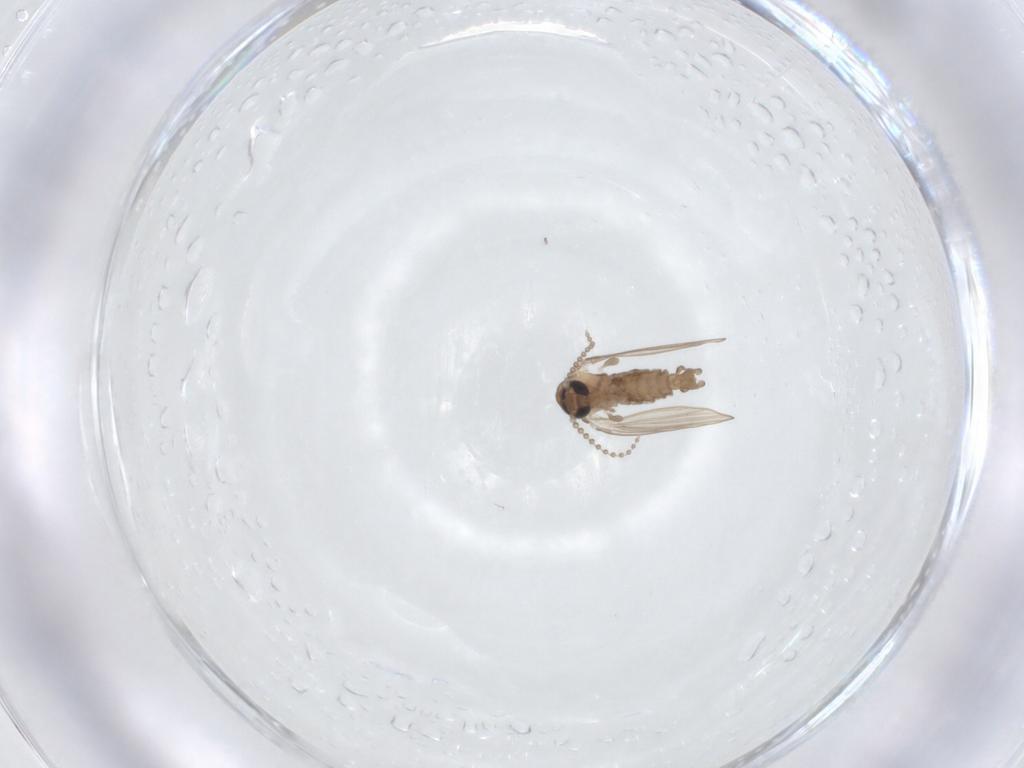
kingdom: Animalia
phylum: Arthropoda
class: Insecta
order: Diptera
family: Psychodidae
